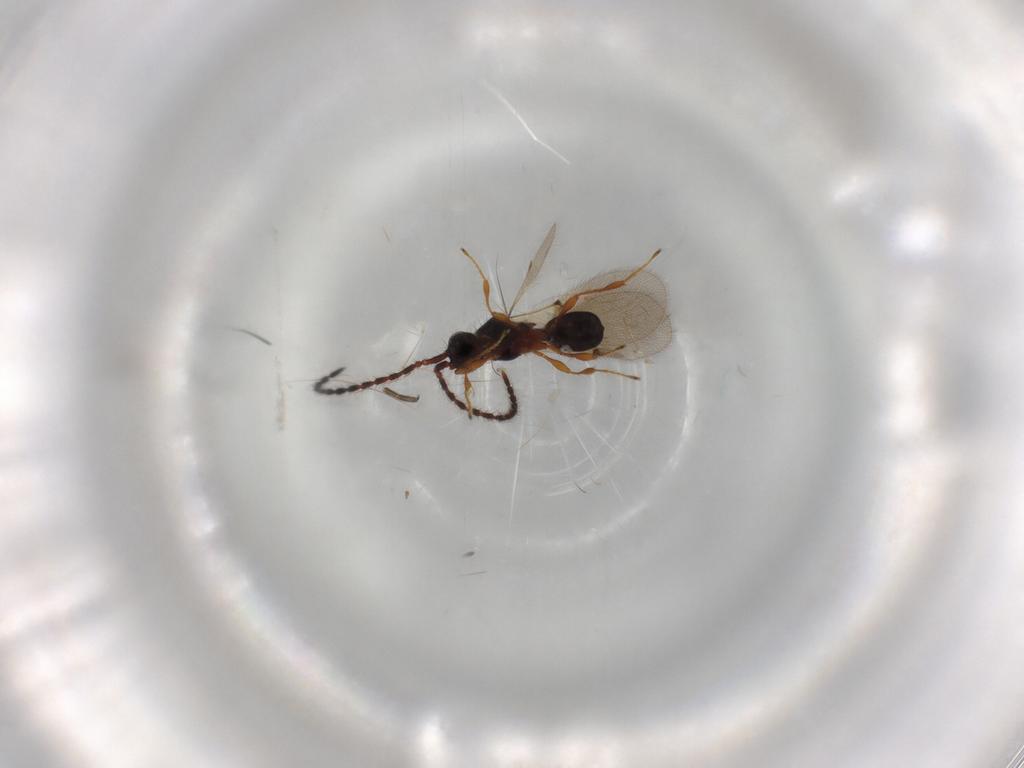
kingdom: Animalia
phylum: Arthropoda
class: Insecta
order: Hymenoptera
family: Diapriidae
